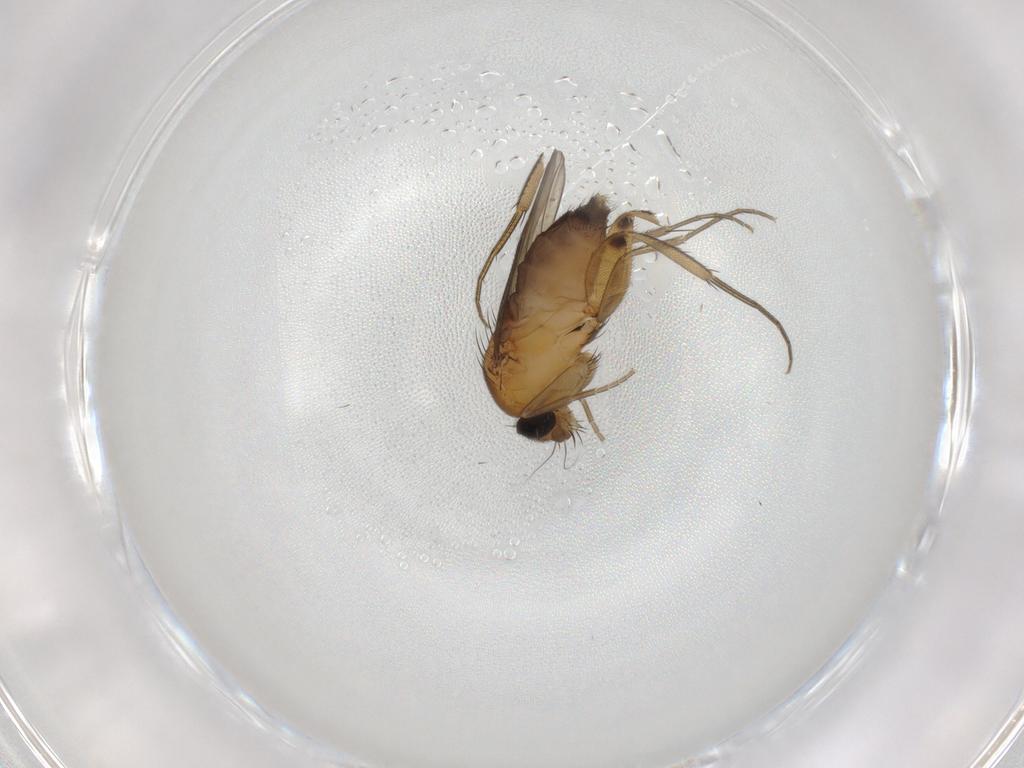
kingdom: Animalia
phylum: Arthropoda
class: Insecta
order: Diptera
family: Phoridae
